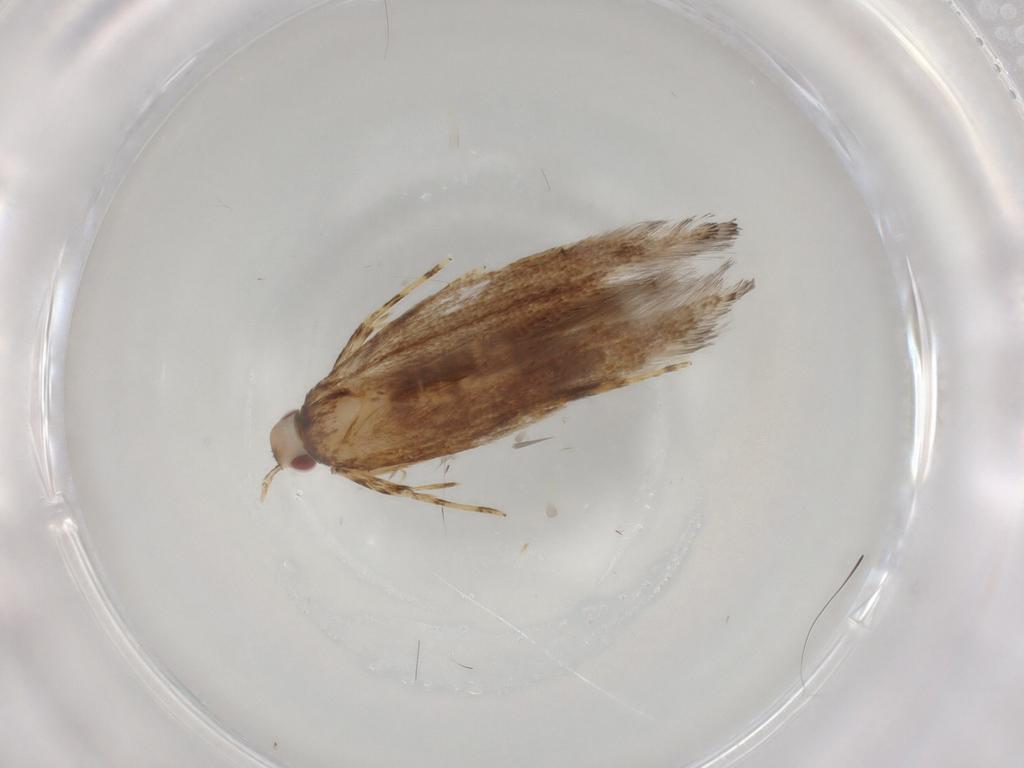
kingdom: Animalia
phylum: Arthropoda
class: Insecta
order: Lepidoptera
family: Cosmopterigidae
